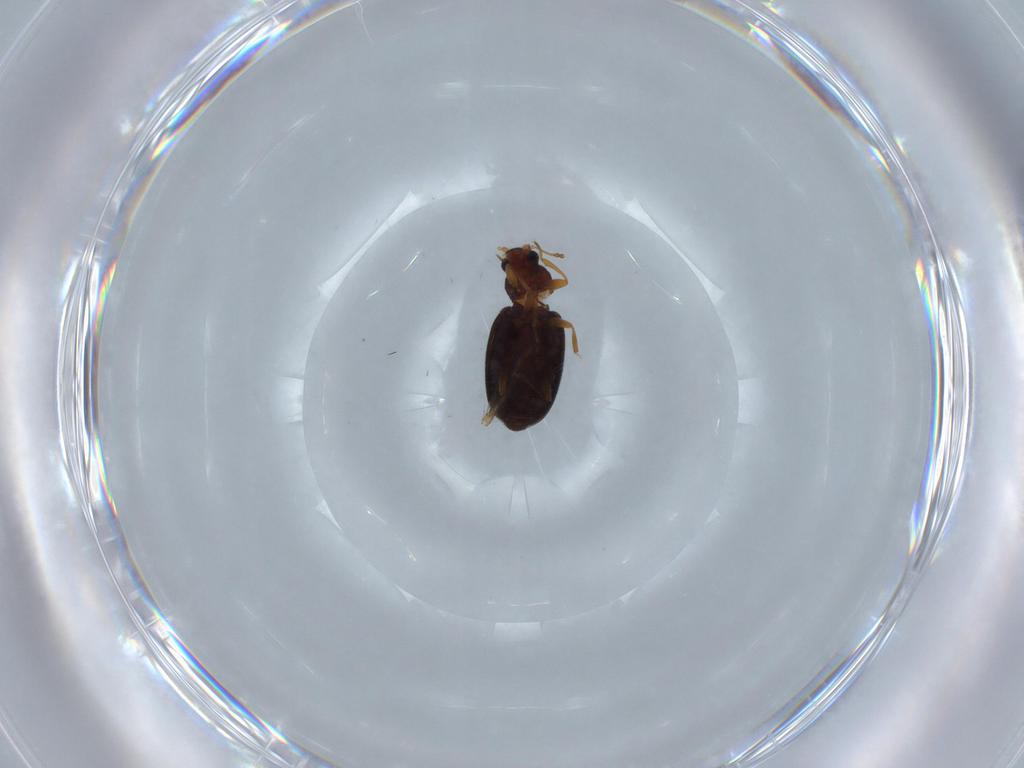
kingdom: Animalia
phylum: Arthropoda
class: Insecta
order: Coleoptera
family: Latridiidae
